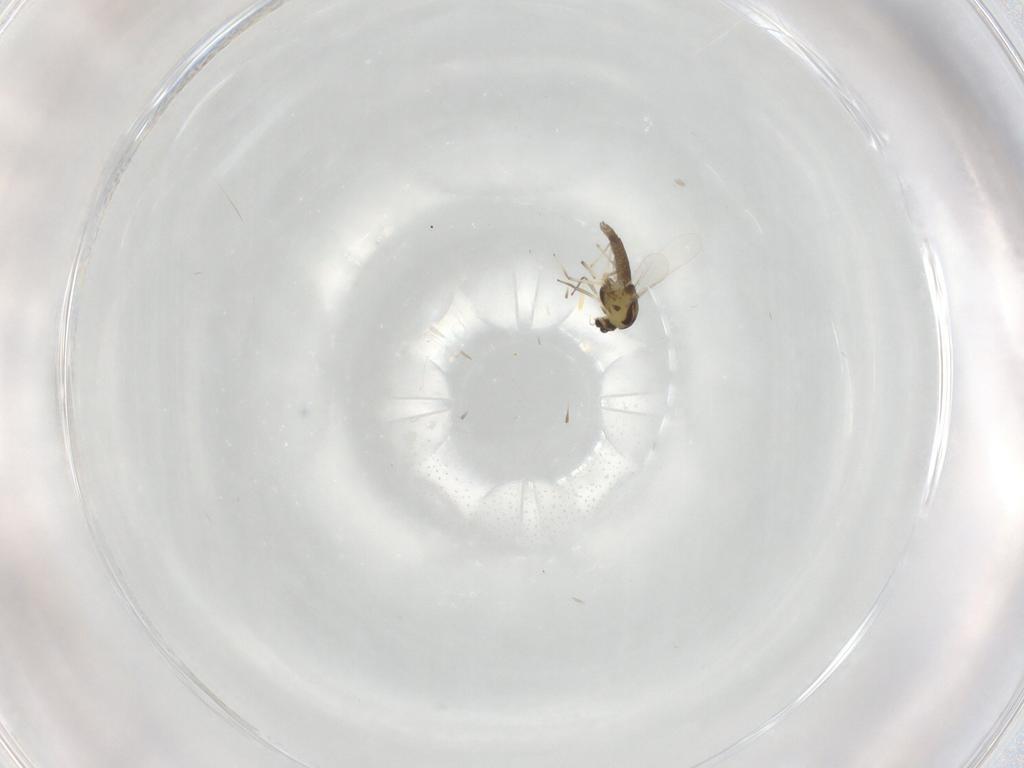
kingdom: Animalia
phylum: Arthropoda
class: Insecta
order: Diptera
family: Chironomidae
